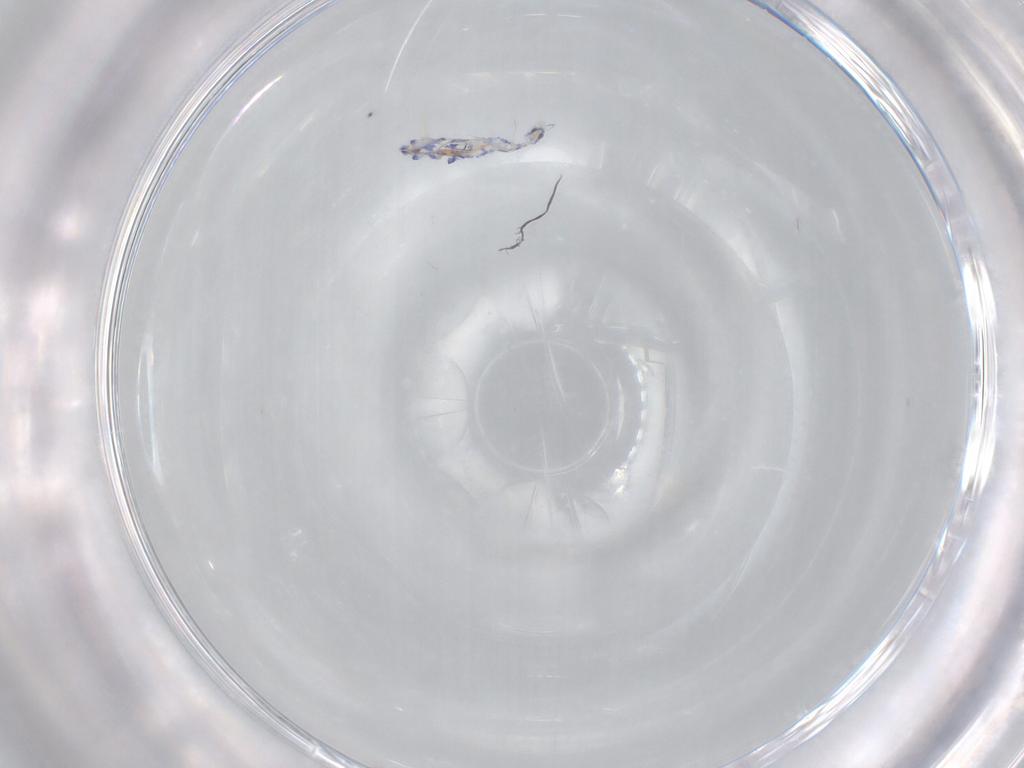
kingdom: Animalia
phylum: Arthropoda
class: Collembola
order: Entomobryomorpha
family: Entomobryidae
